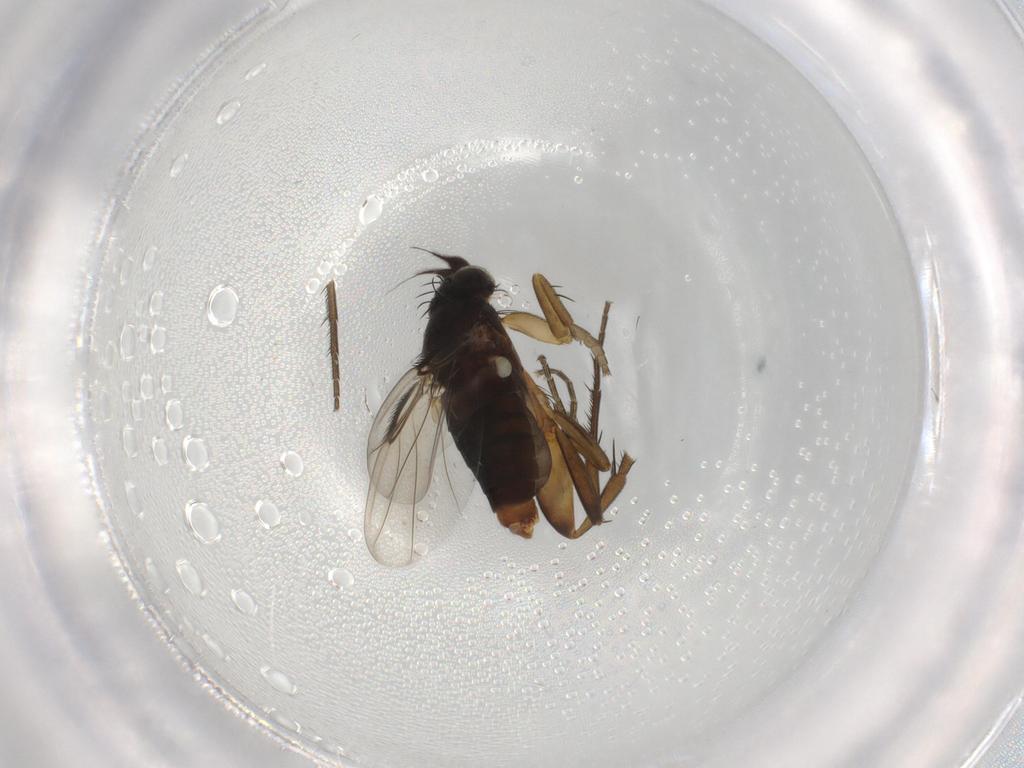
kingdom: Animalia
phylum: Arthropoda
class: Insecta
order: Diptera
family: Phoridae
